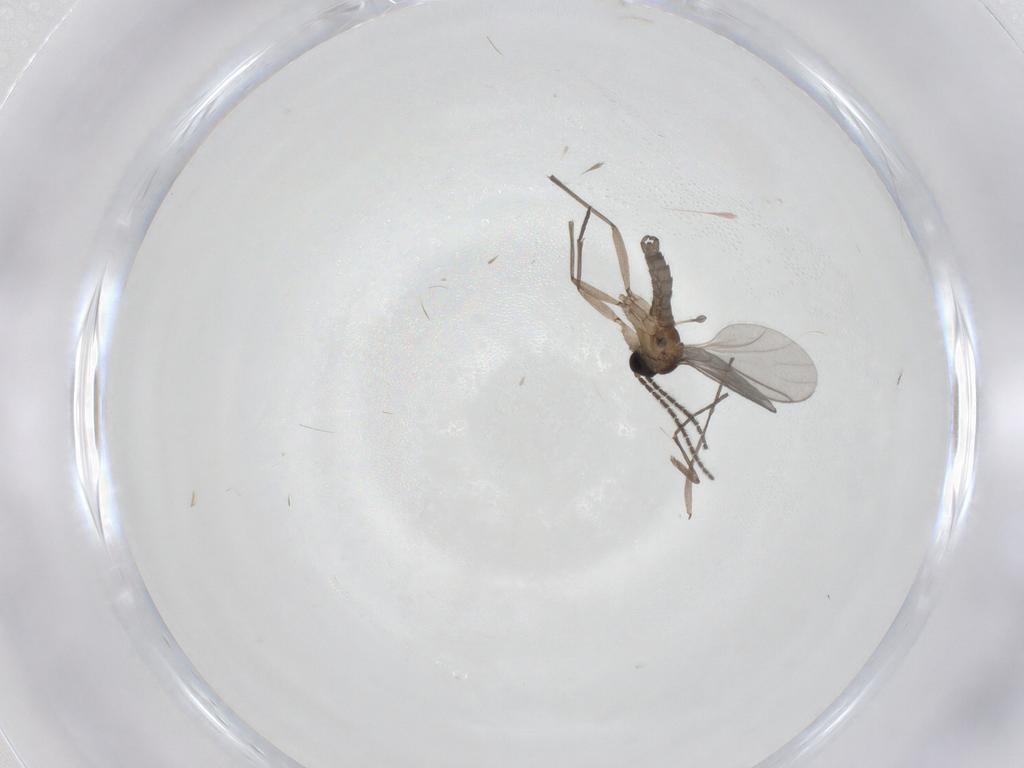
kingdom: Animalia
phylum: Arthropoda
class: Insecta
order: Diptera
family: Sciaridae
